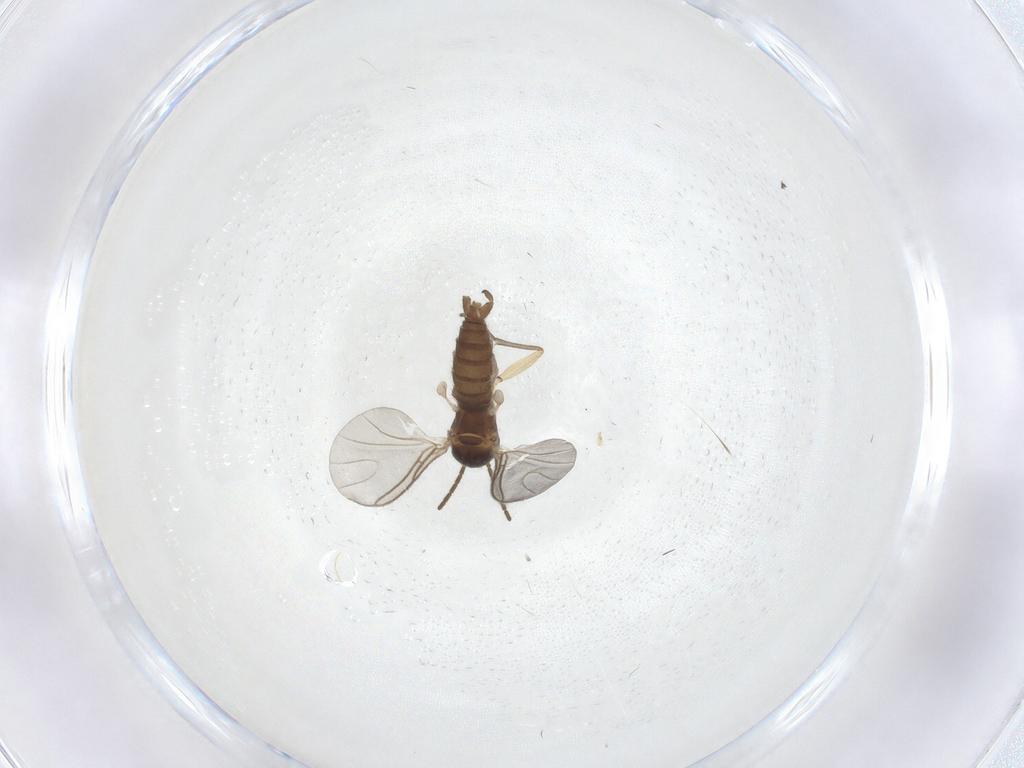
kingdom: Animalia
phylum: Arthropoda
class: Insecta
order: Diptera
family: Sciaridae
